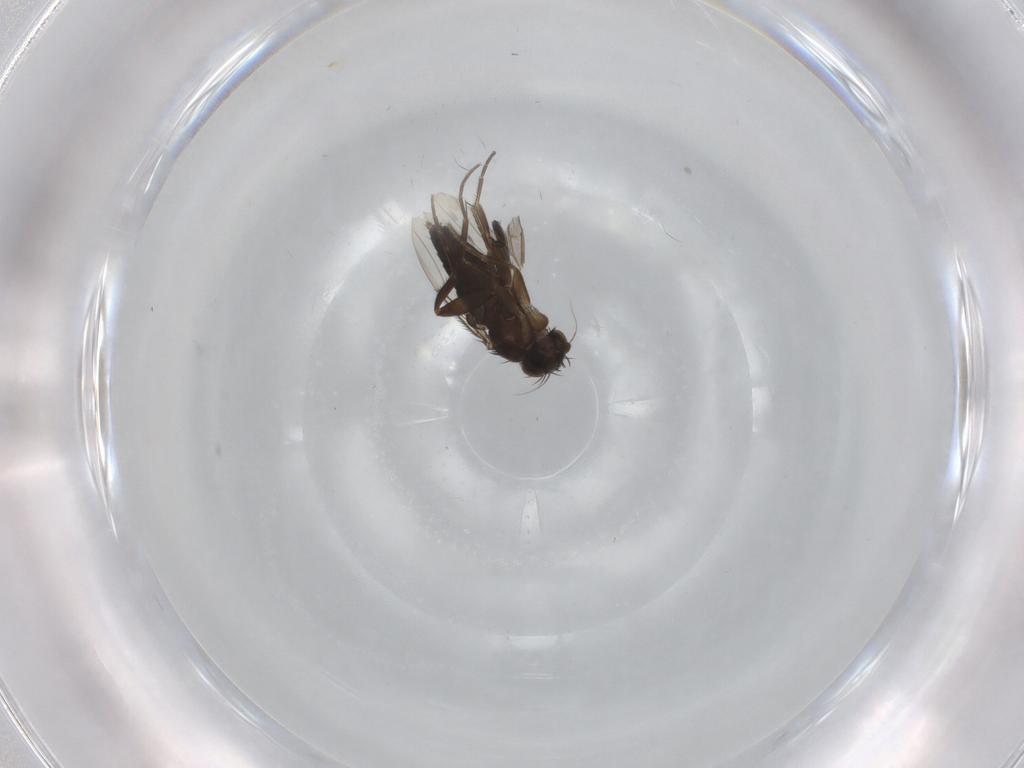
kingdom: Animalia
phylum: Arthropoda
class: Insecta
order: Diptera
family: Phoridae
